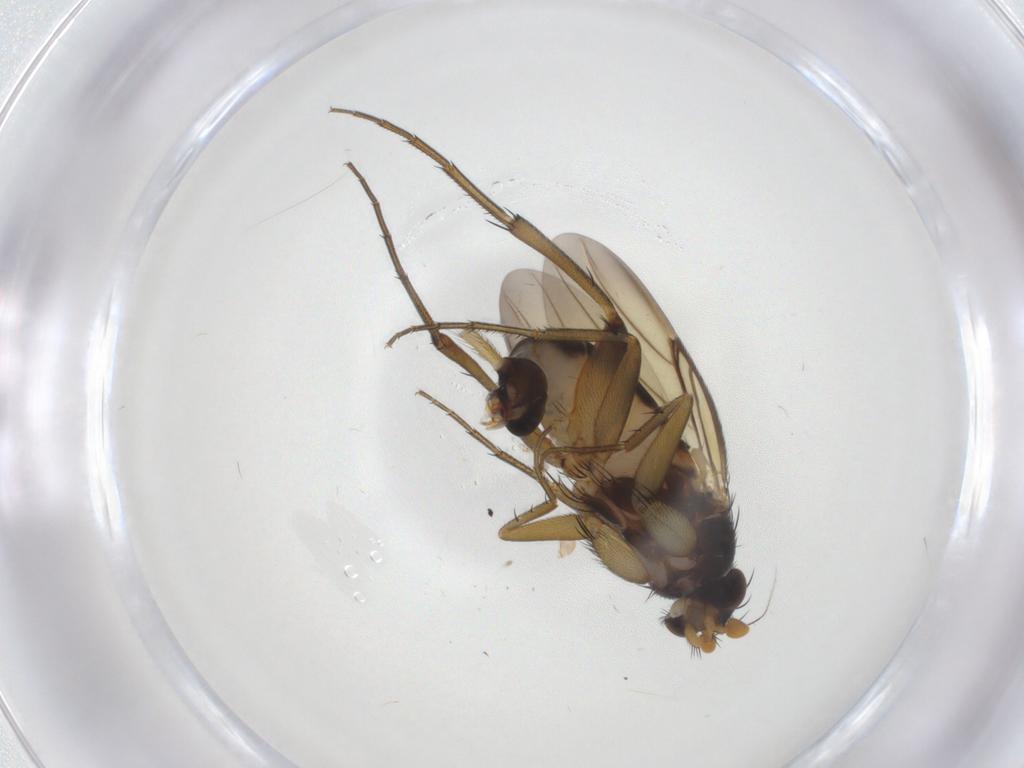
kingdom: Animalia
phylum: Arthropoda
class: Insecta
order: Diptera
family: Phoridae
